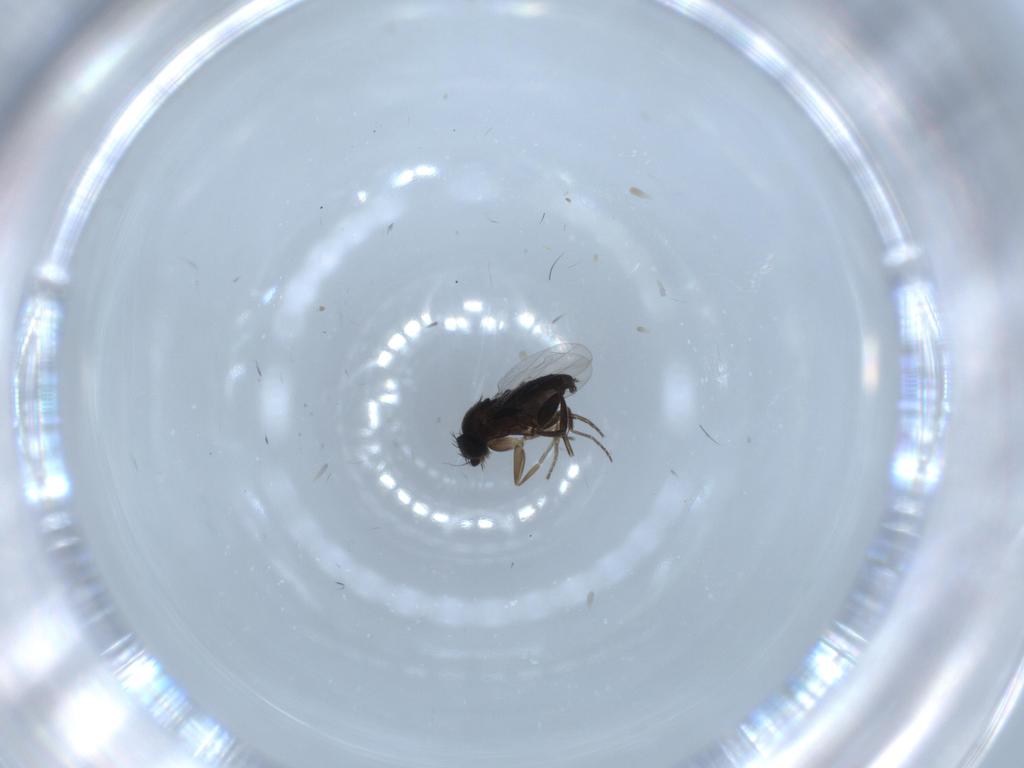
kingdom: Animalia
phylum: Arthropoda
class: Insecta
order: Diptera
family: Phoridae
